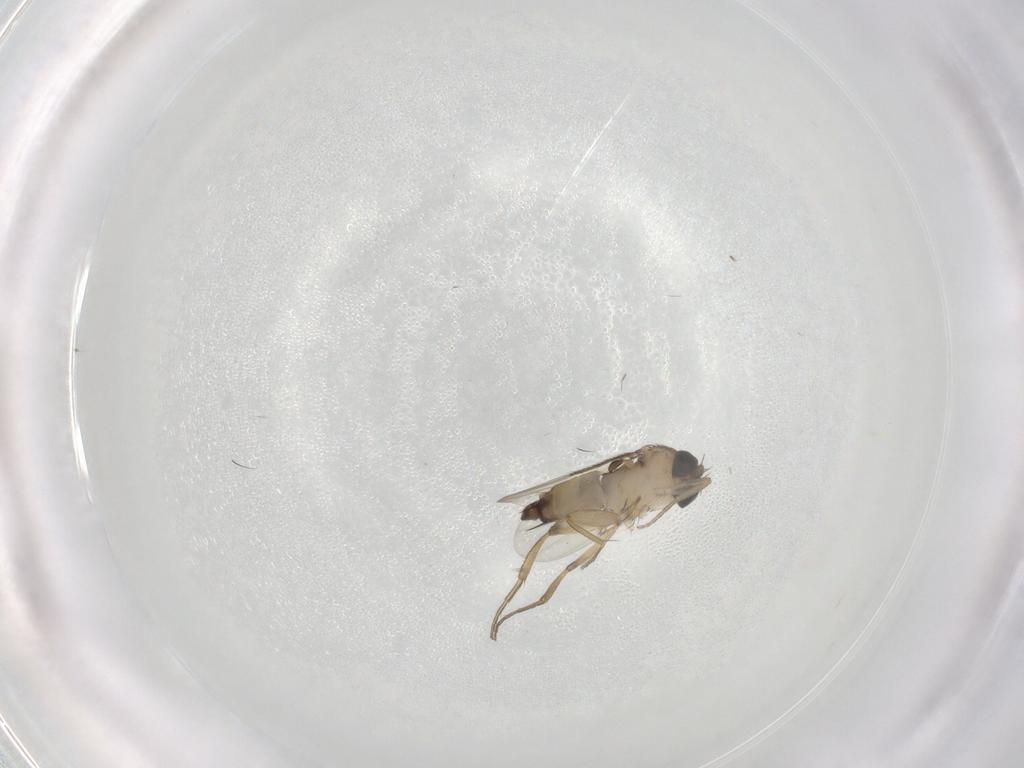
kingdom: Animalia
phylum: Arthropoda
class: Insecta
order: Diptera
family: Phoridae
